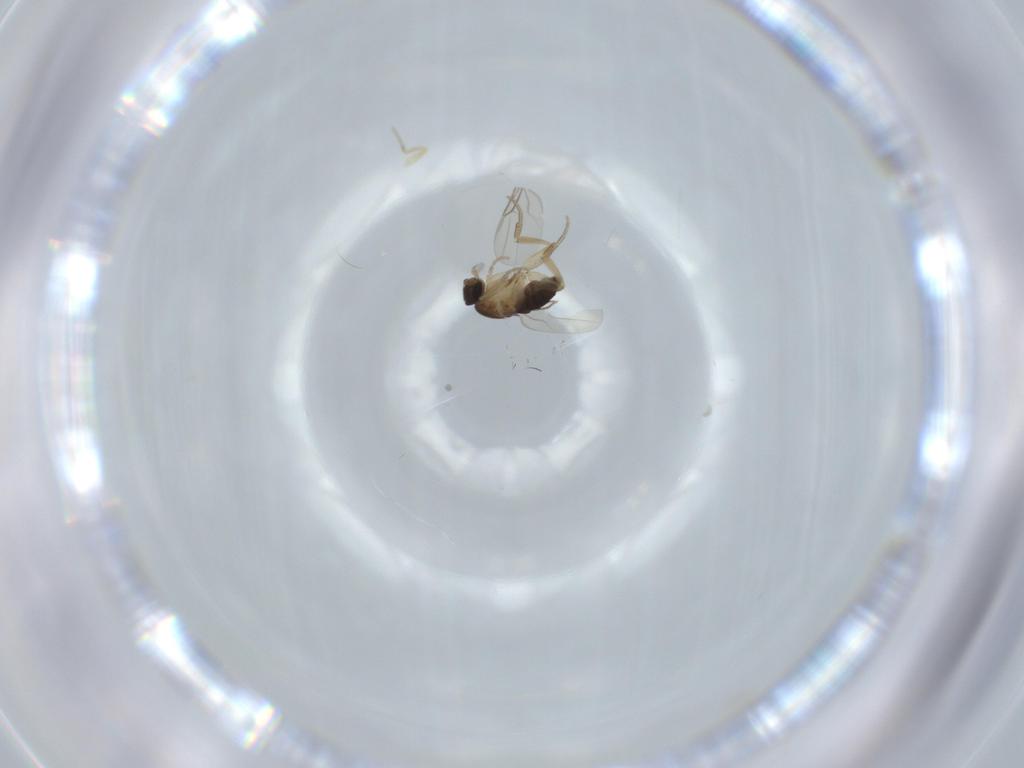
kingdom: Animalia
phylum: Arthropoda
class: Insecta
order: Diptera
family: Phoridae
